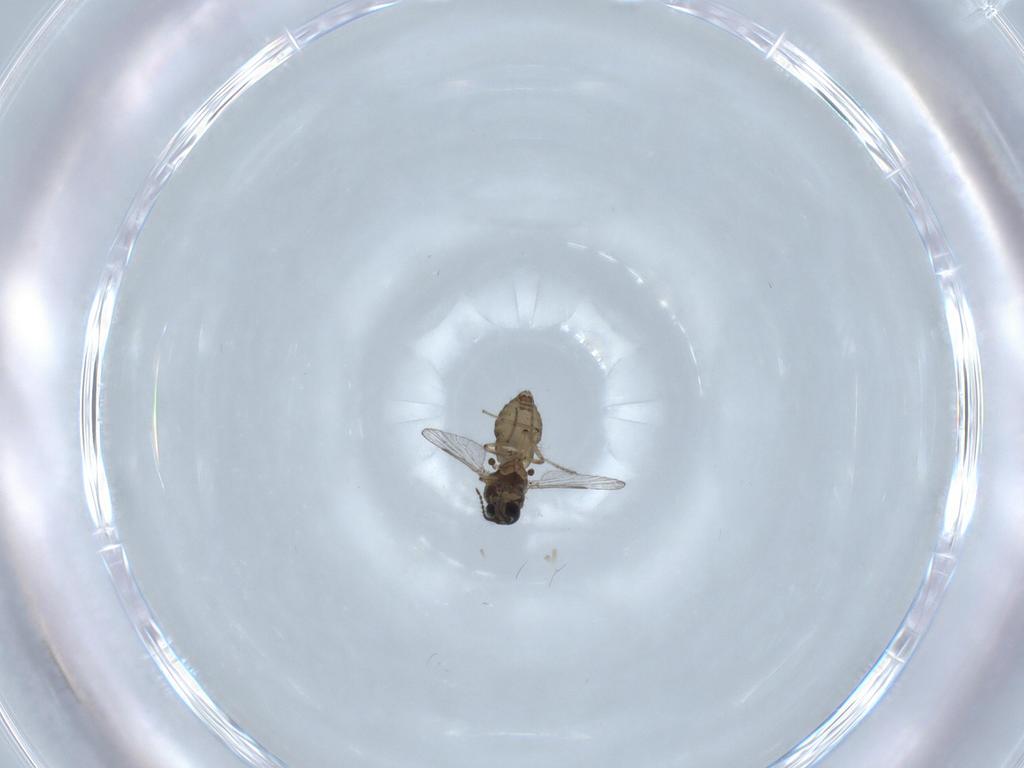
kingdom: Animalia
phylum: Arthropoda
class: Insecta
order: Diptera
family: Ceratopogonidae
